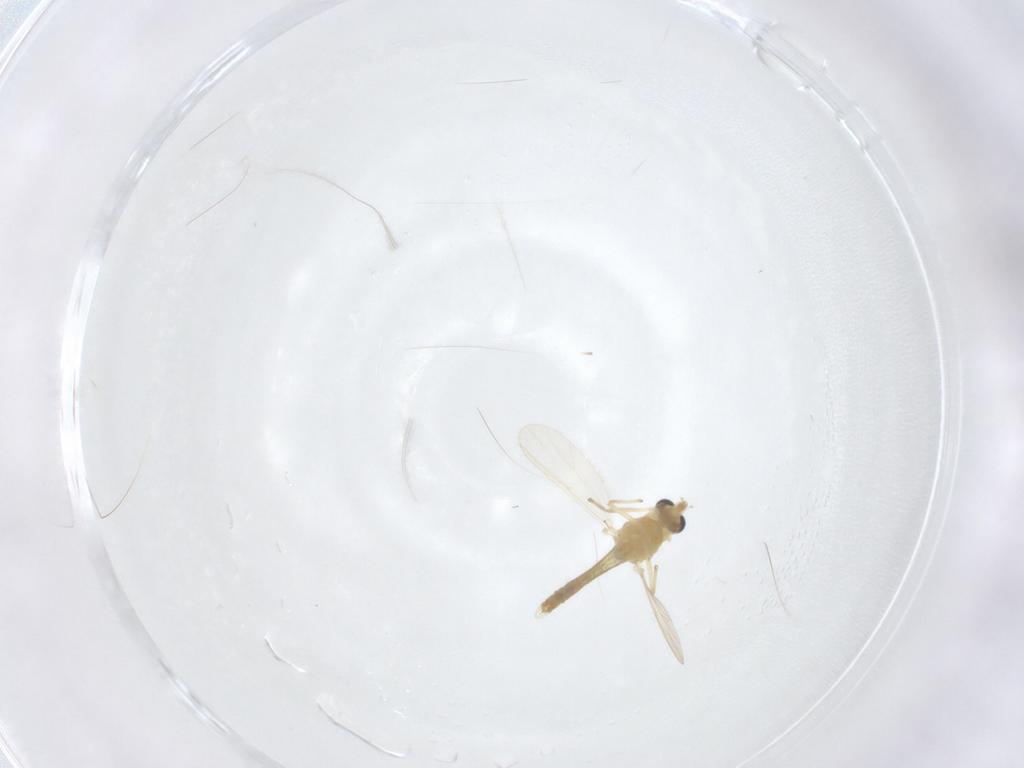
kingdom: Animalia
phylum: Arthropoda
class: Insecta
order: Diptera
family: Chironomidae
